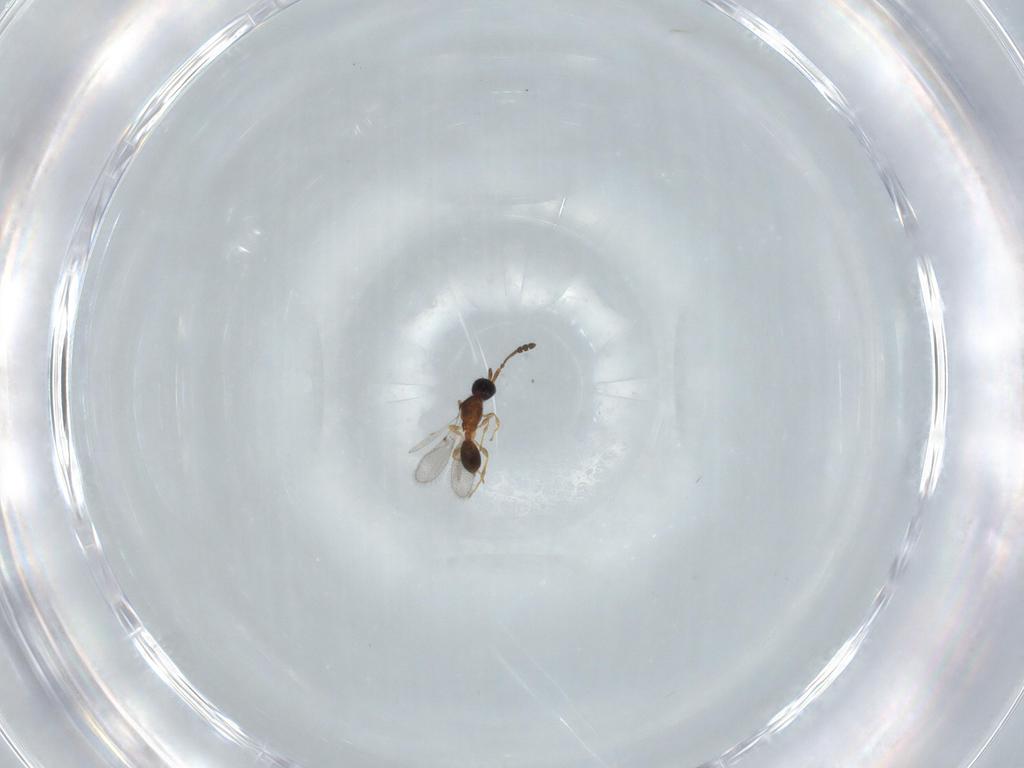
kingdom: Animalia
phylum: Arthropoda
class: Insecta
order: Hymenoptera
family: Diapriidae
